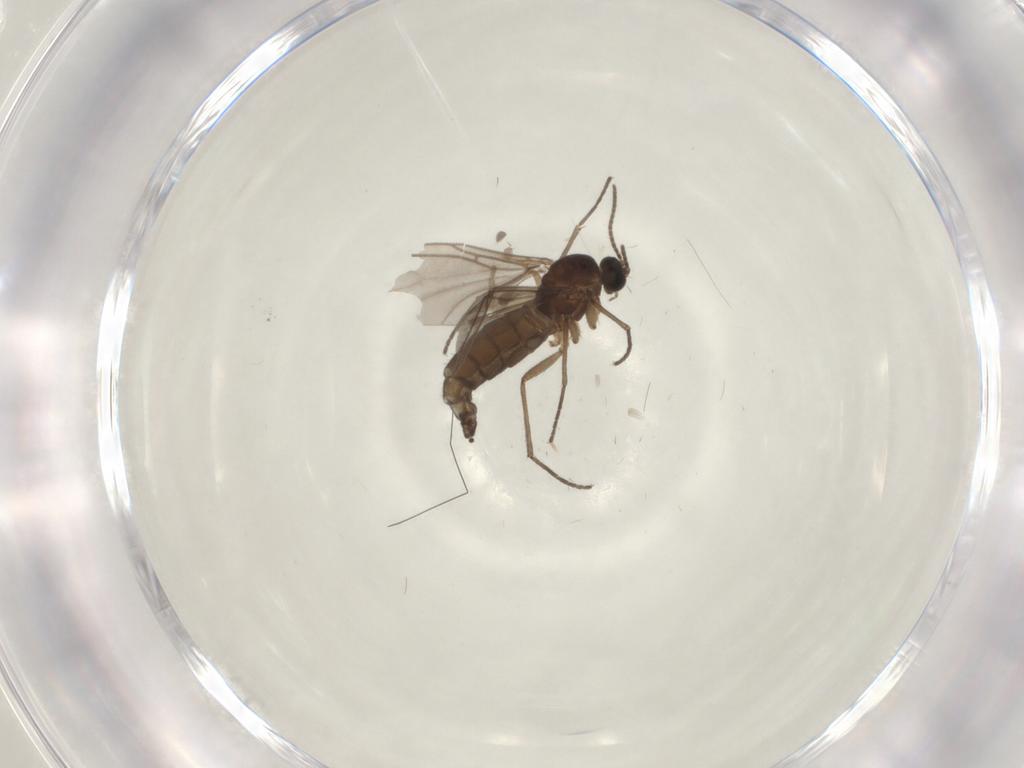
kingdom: Animalia
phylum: Arthropoda
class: Insecta
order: Diptera
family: Sciaridae
